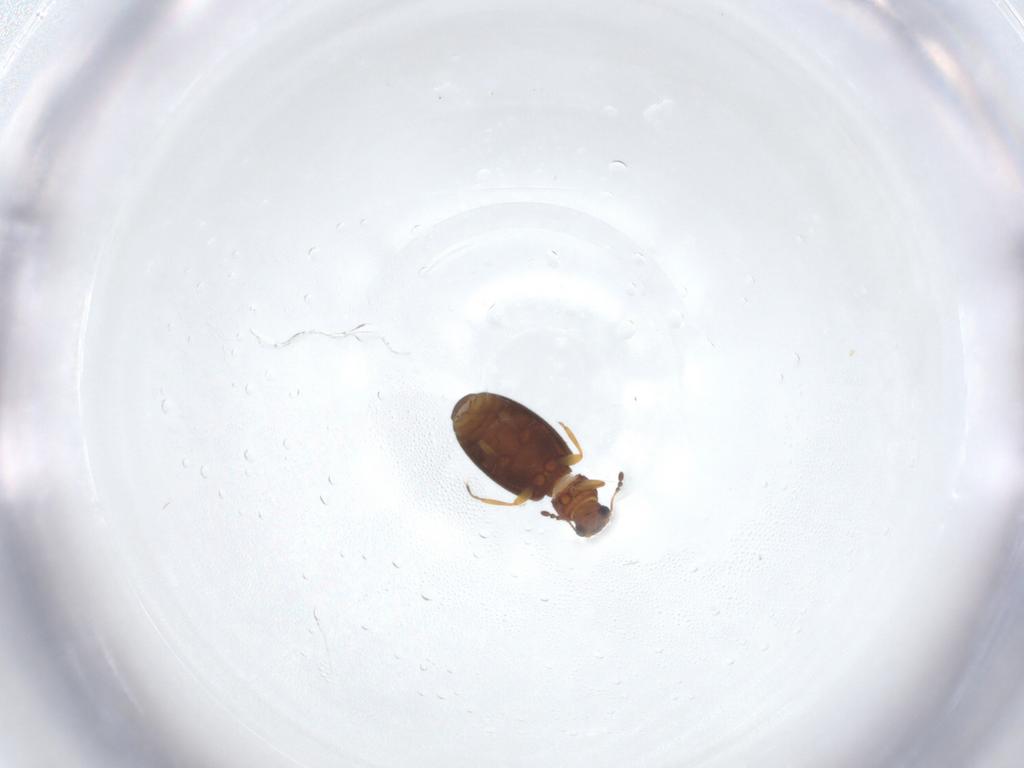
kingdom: Animalia
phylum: Arthropoda
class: Insecta
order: Coleoptera
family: Latridiidae
